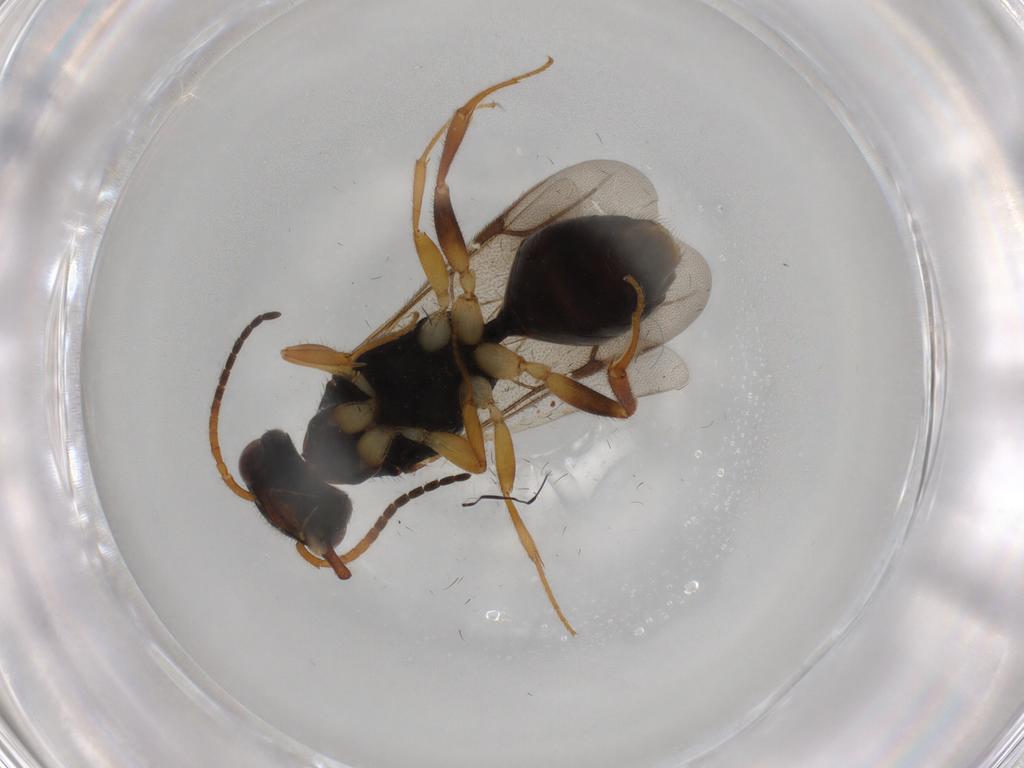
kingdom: Animalia
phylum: Arthropoda
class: Insecta
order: Hymenoptera
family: Bethylidae
